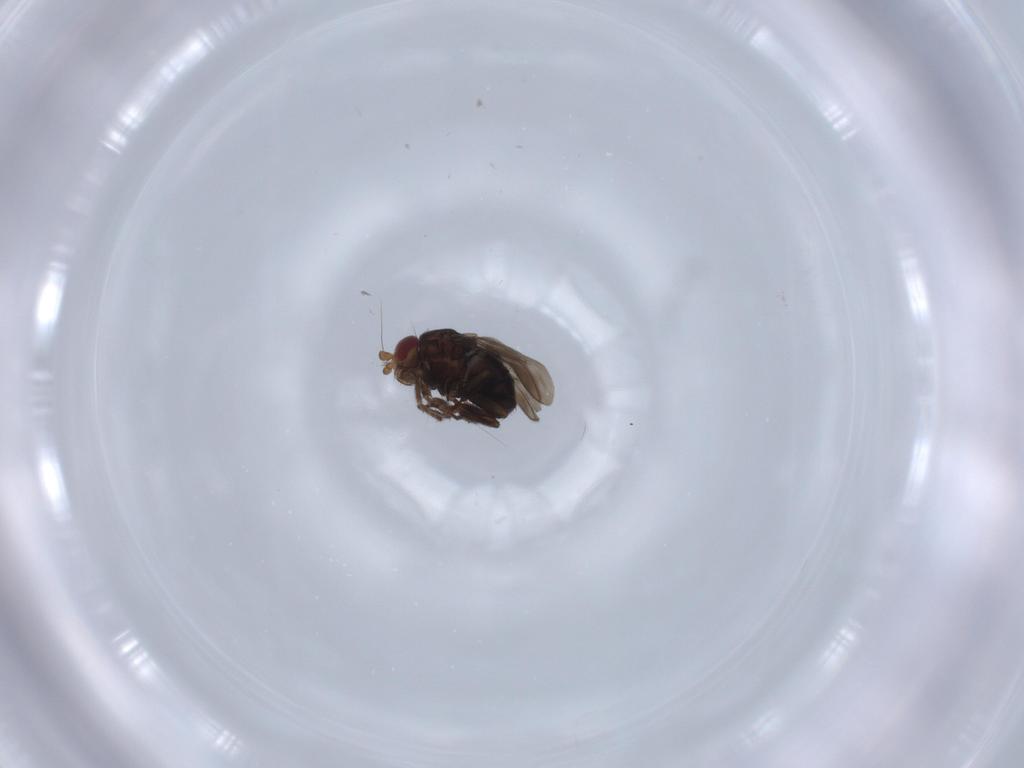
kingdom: Animalia
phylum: Arthropoda
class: Insecta
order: Diptera
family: Sphaeroceridae
